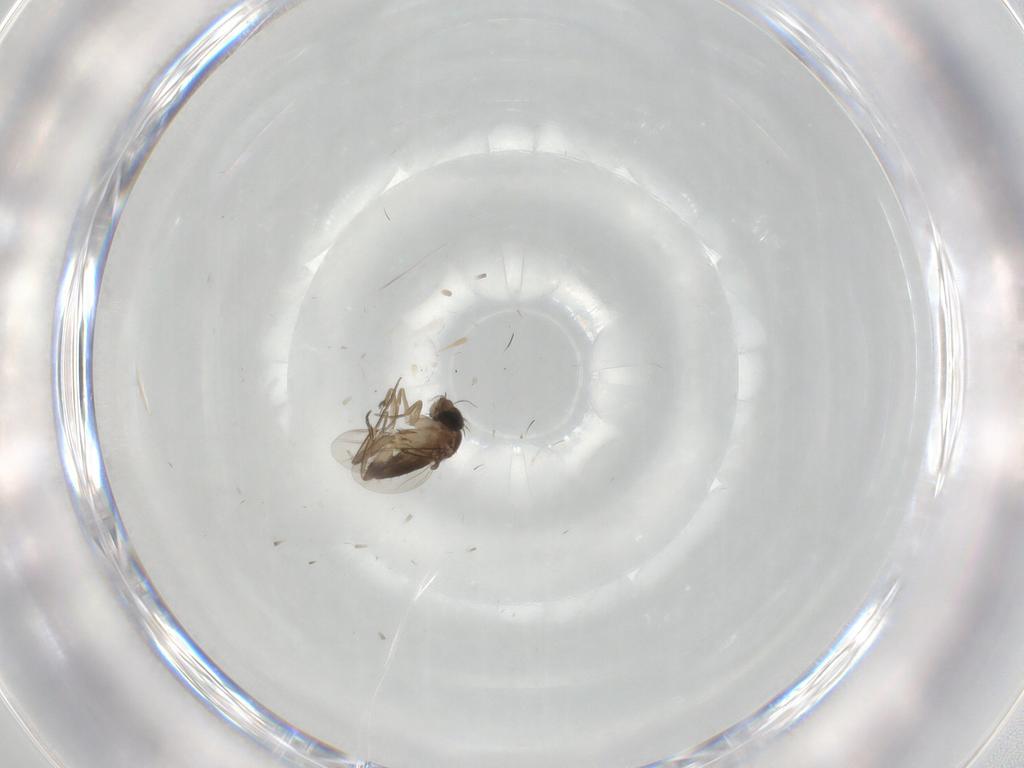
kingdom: Animalia
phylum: Arthropoda
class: Insecta
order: Diptera
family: Phoridae
